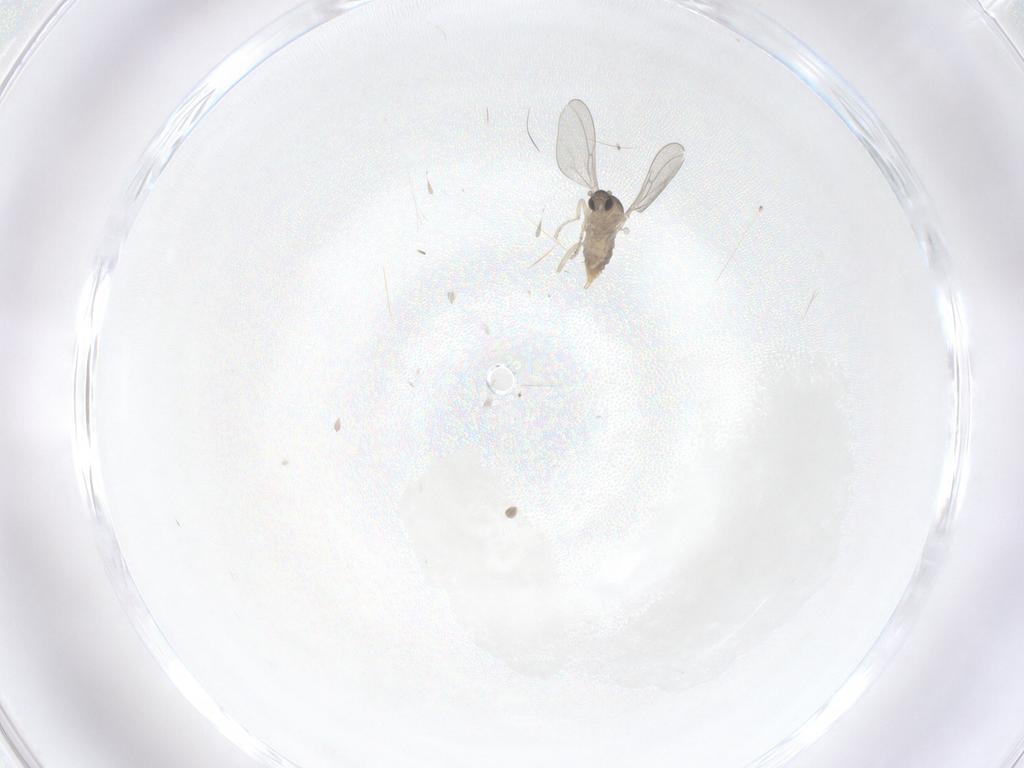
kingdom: Animalia
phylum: Arthropoda
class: Insecta
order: Diptera
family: Cecidomyiidae
